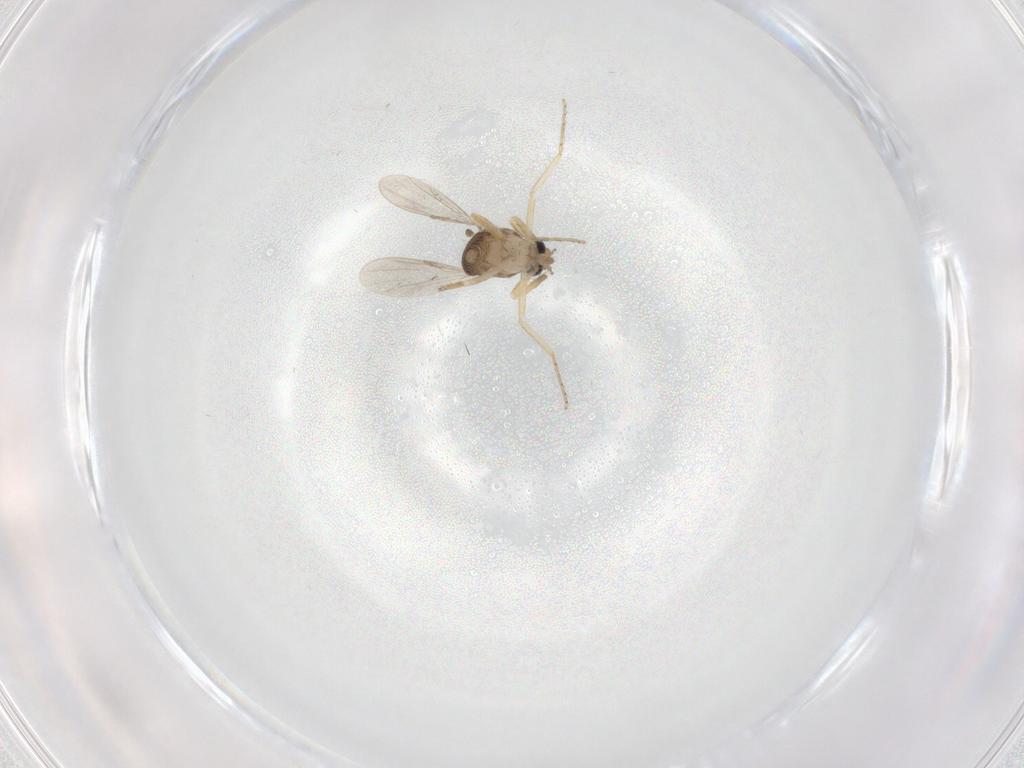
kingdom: Animalia
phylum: Arthropoda
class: Insecta
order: Diptera
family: Ceratopogonidae
